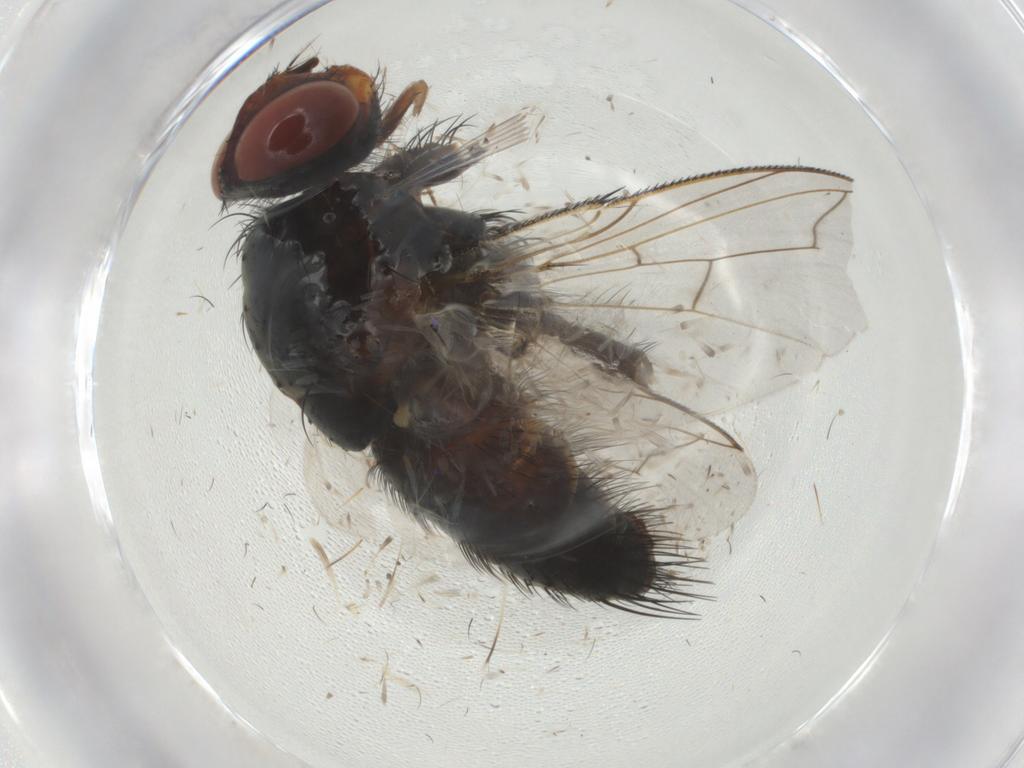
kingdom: Animalia
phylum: Arthropoda
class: Insecta
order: Diptera
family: Tachinidae
